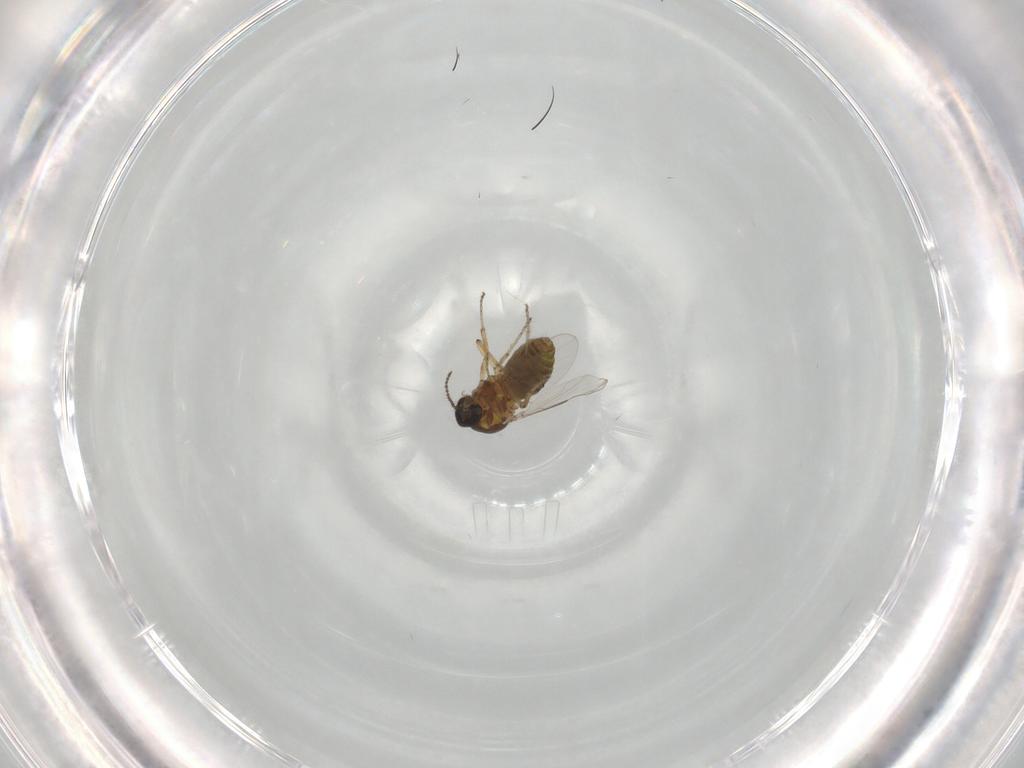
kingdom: Animalia
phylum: Arthropoda
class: Insecta
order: Diptera
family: Ceratopogonidae
